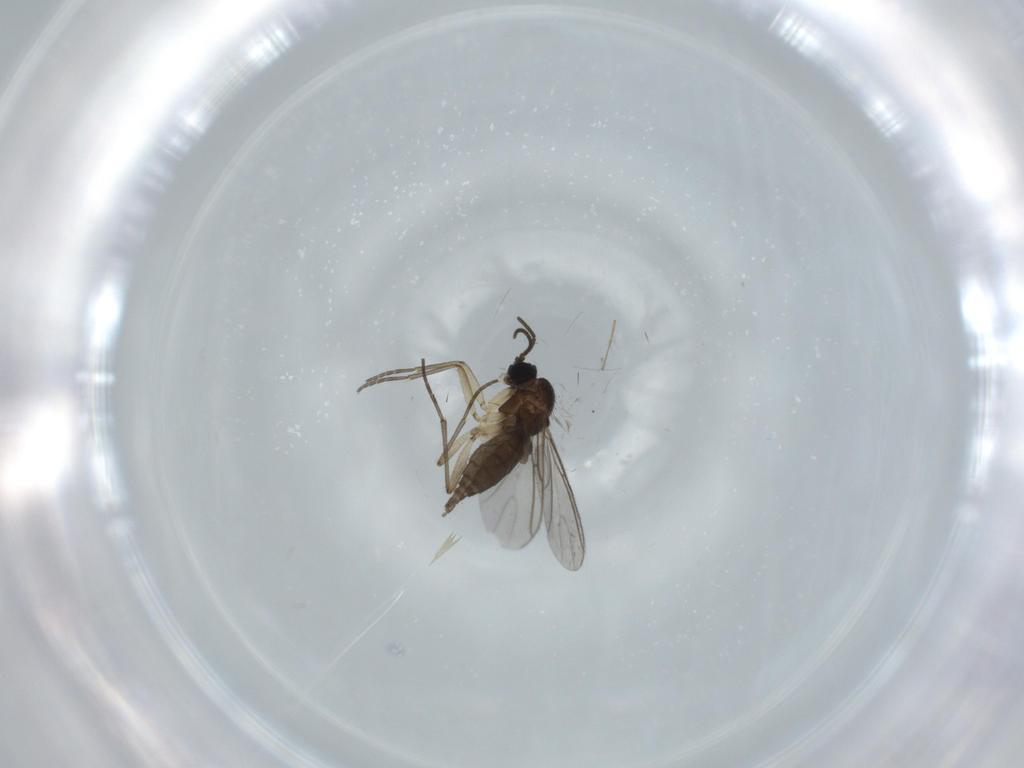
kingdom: Animalia
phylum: Arthropoda
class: Insecta
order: Diptera
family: Sciaridae
